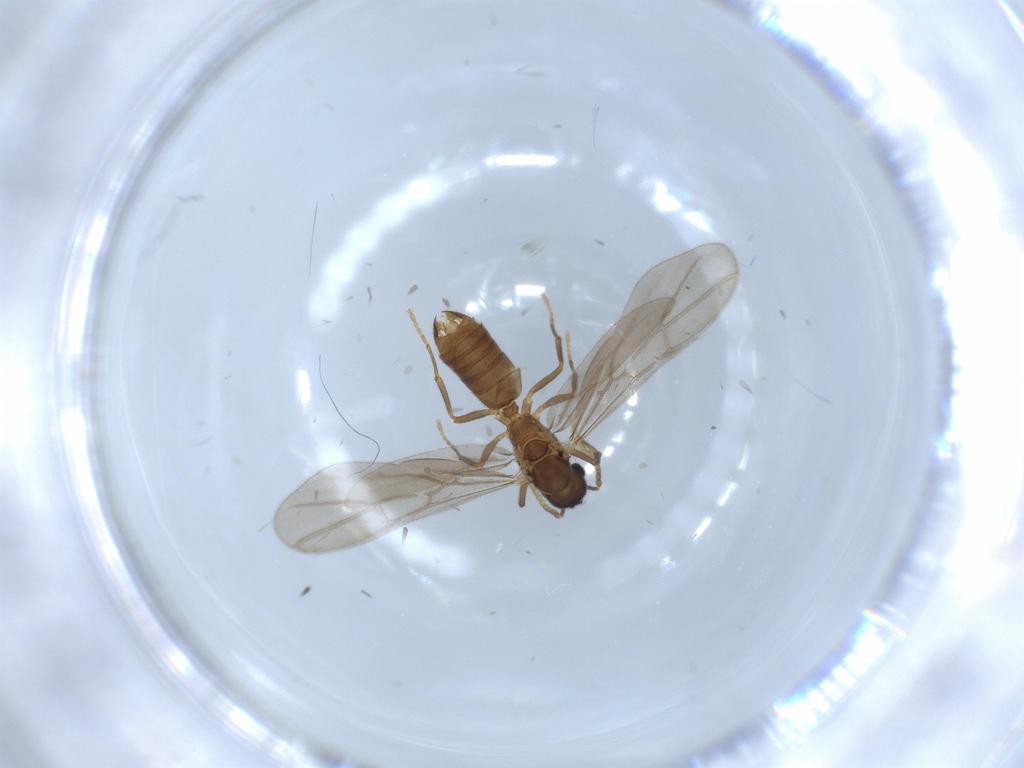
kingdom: Animalia
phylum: Arthropoda
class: Insecta
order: Hymenoptera
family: Formicidae
